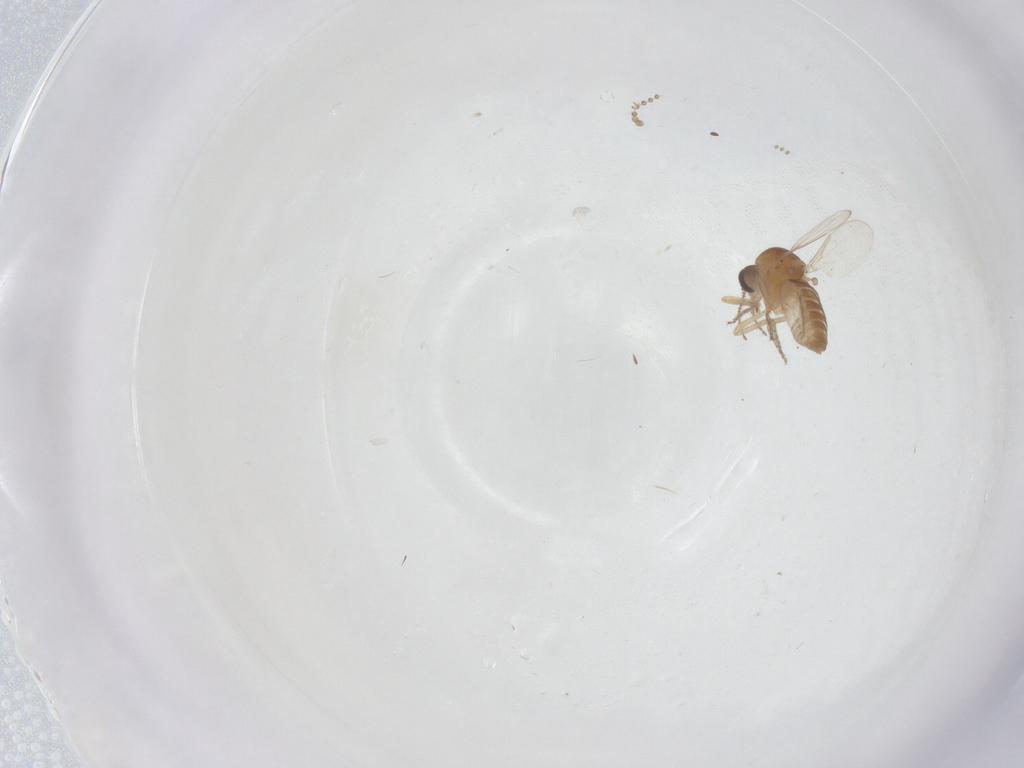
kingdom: Animalia
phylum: Arthropoda
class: Insecta
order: Diptera
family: Ceratopogonidae
